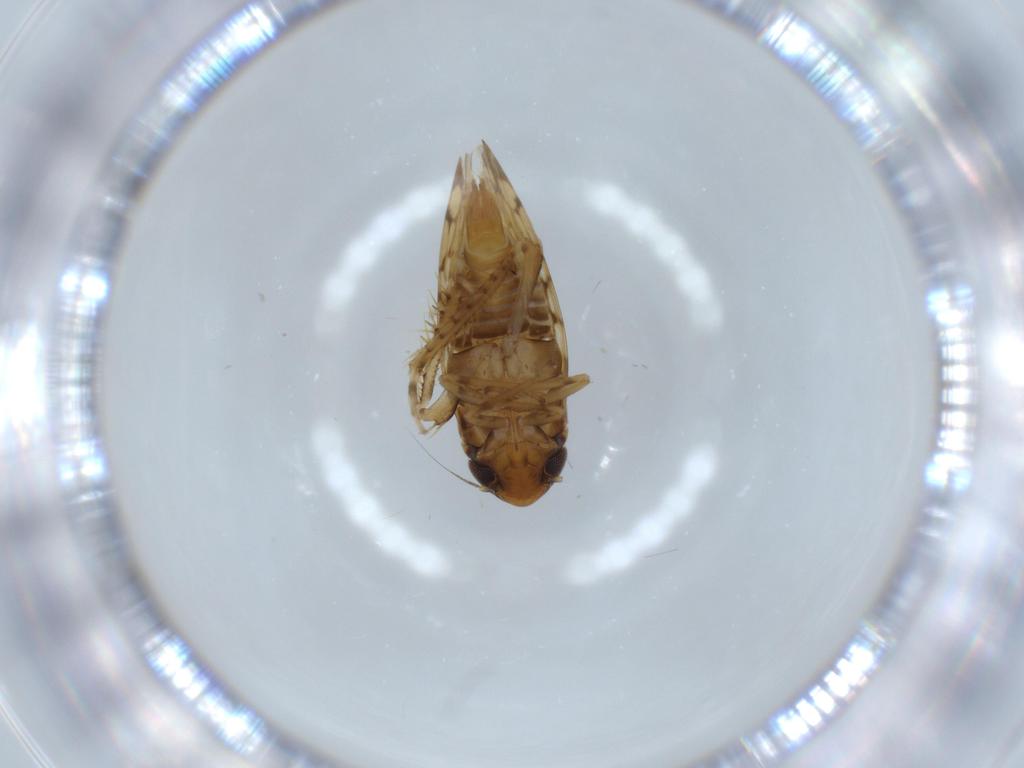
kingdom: Animalia
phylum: Arthropoda
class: Insecta
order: Hemiptera
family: Cicadellidae
